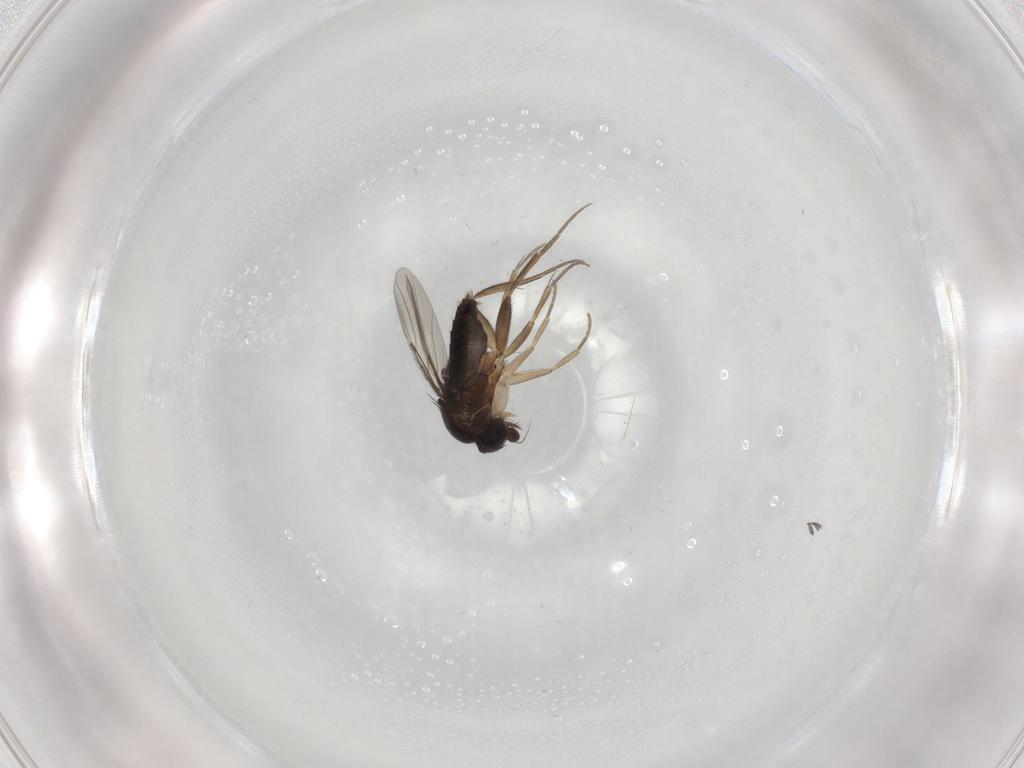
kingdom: Animalia
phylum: Arthropoda
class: Insecta
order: Diptera
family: Phoridae
